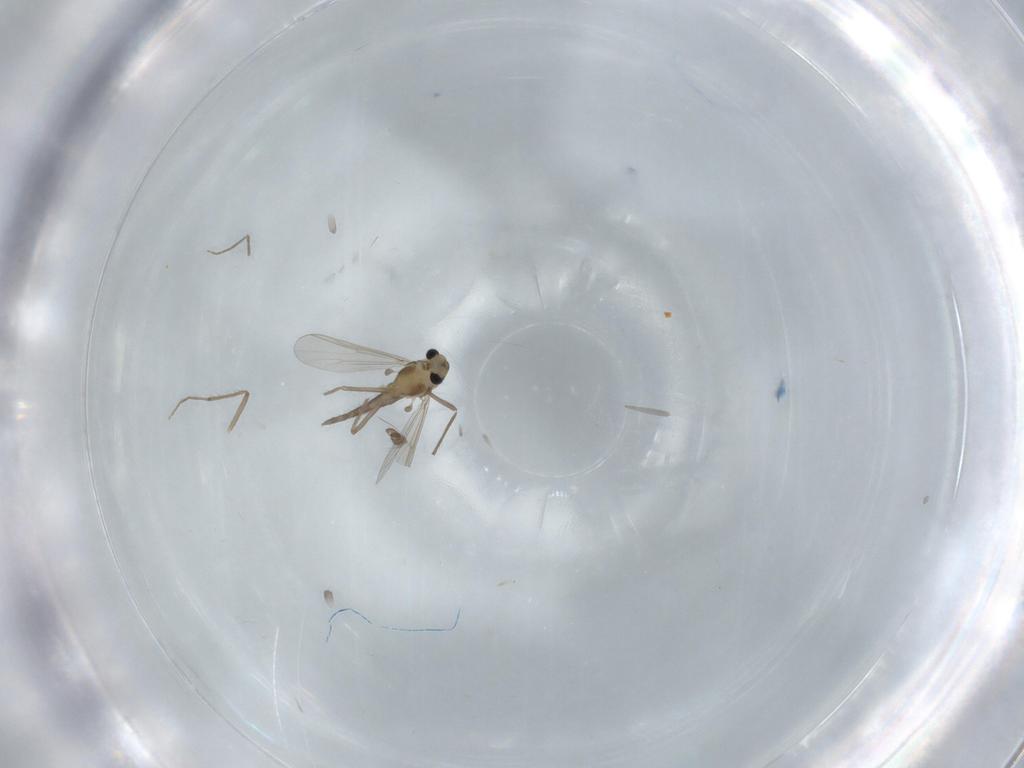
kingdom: Animalia
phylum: Arthropoda
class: Insecta
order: Diptera
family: Chironomidae
